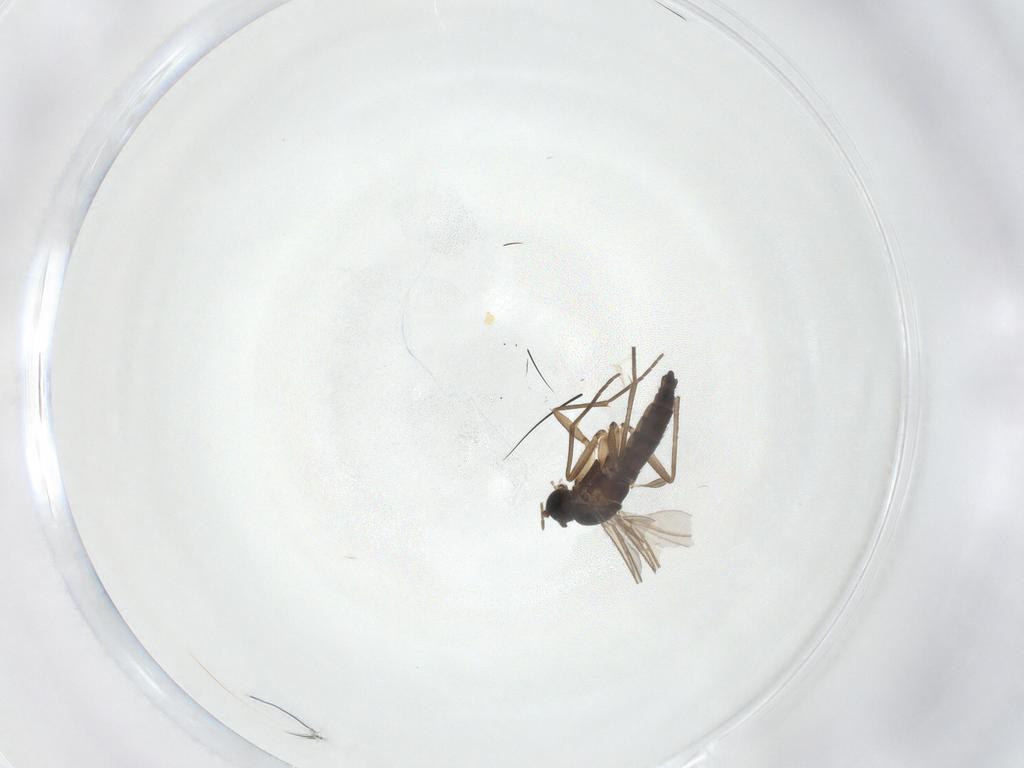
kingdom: Animalia
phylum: Arthropoda
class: Insecta
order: Diptera
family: Sciaridae
